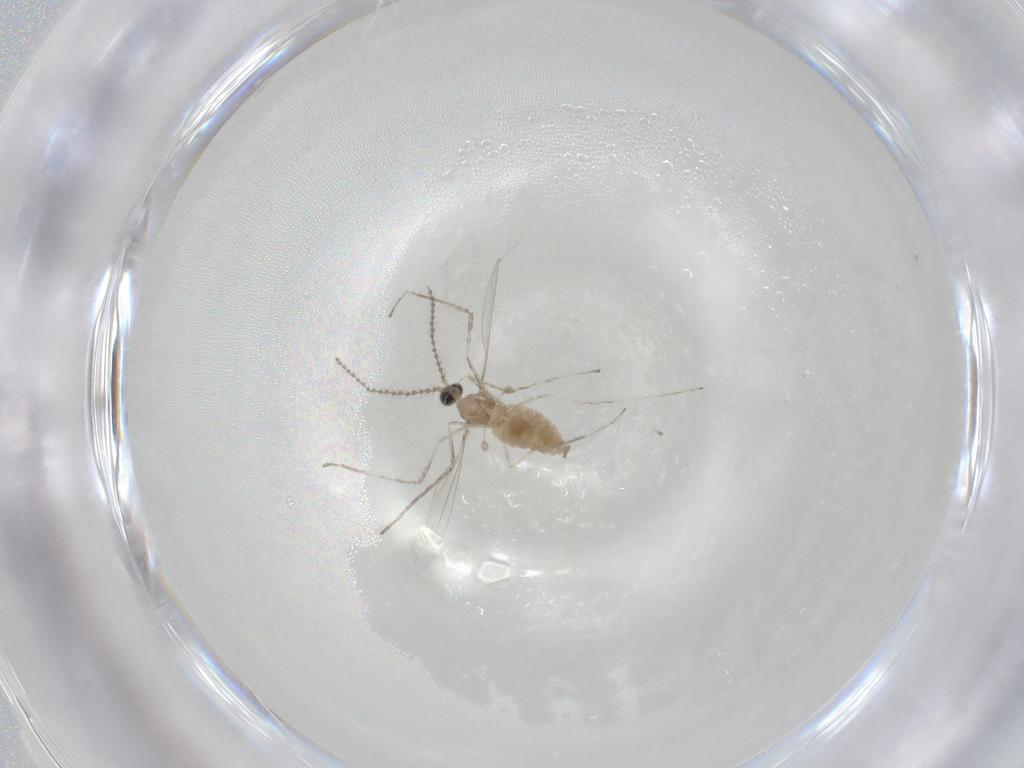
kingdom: Animalia
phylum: Arthropoda
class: Insecta
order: Diptera
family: Cecidomyiidae
